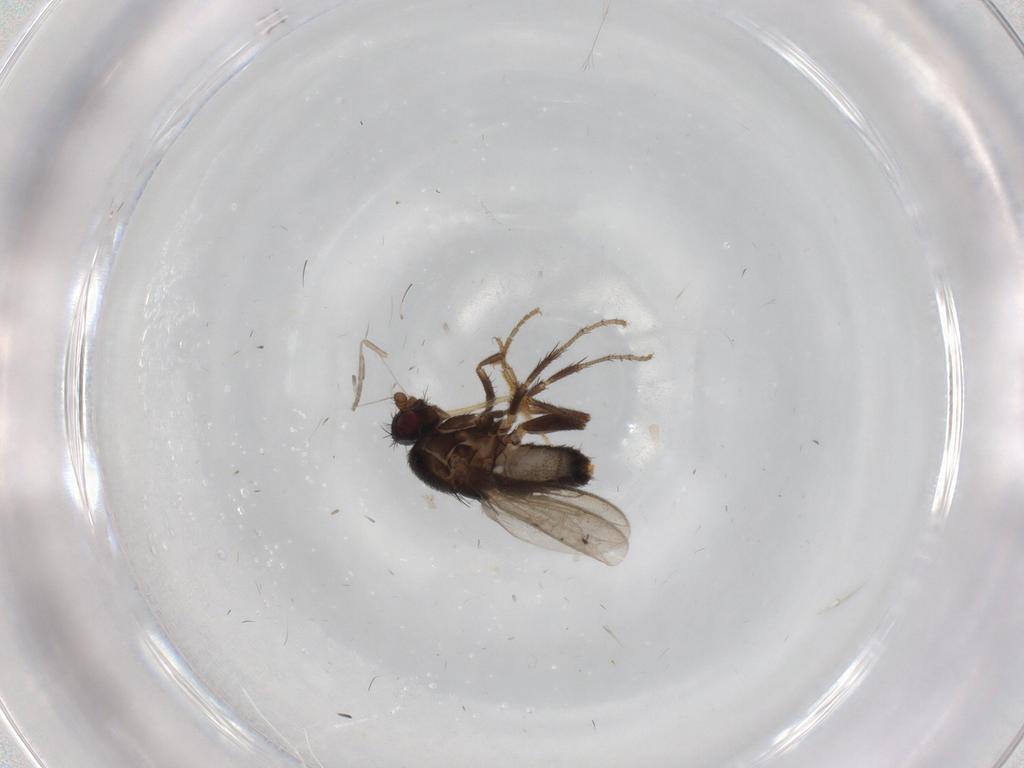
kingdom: Animalia
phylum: Arthropoda
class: Insecta
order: Diptera
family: Sphaeroceridae
